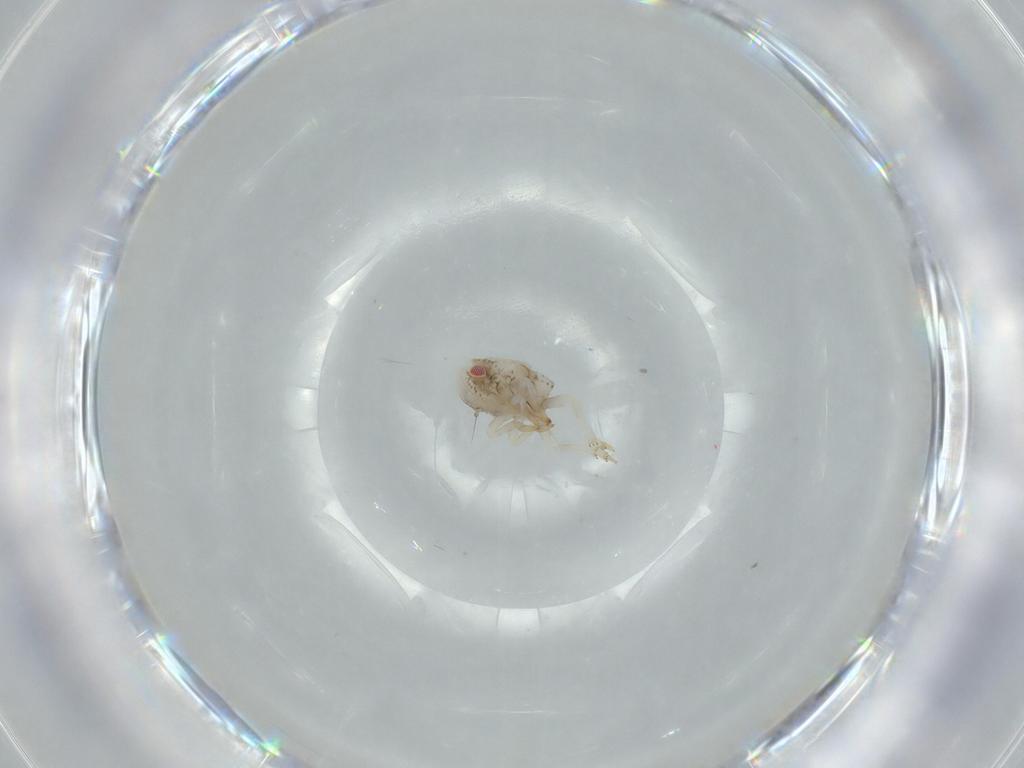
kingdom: Animalia
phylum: Arthropoda
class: Insecta
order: Hemiptera
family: Acanaloniidae
